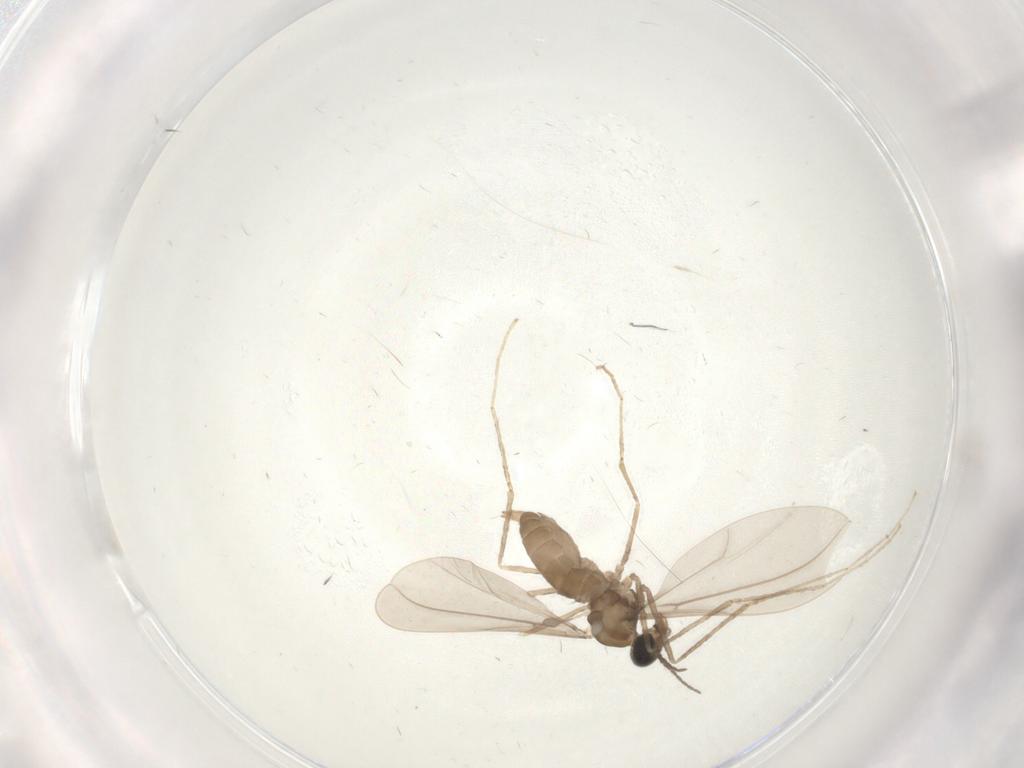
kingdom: Animalia
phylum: Arthropoda
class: Insecta
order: Diptera
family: Cecidomyiidae
